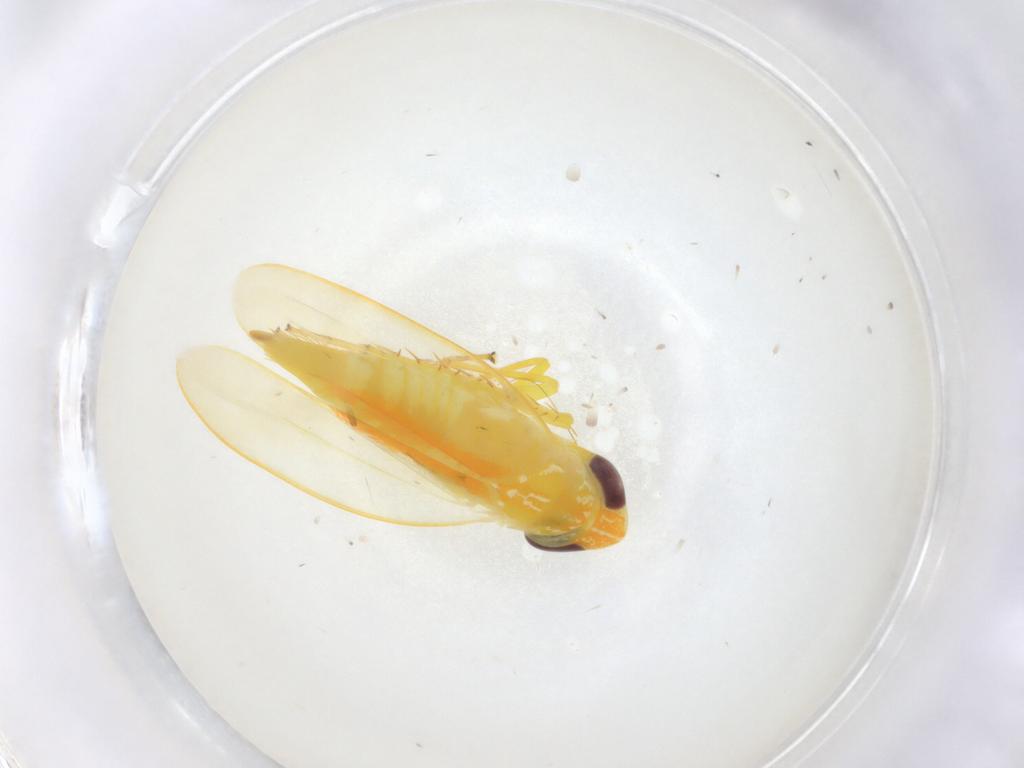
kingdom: Animalia
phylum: Arthropoda
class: Insecta
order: Hemiptera
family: Cicadellidae
